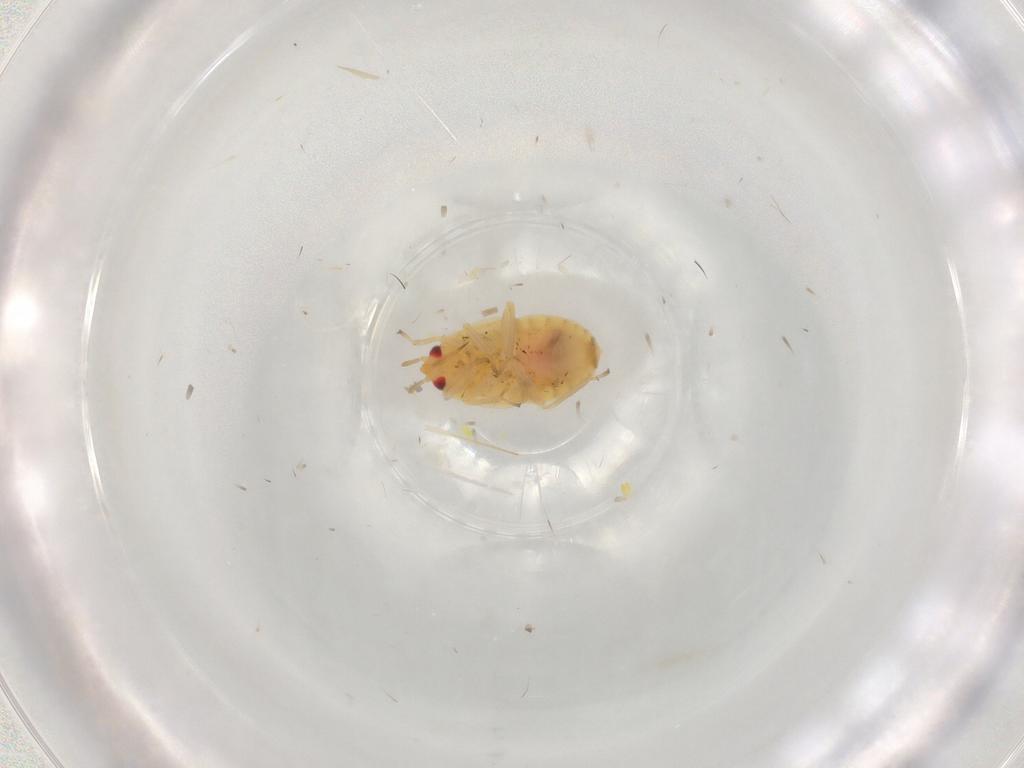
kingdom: Animalia
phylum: Arthropoda
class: Insecta
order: Hemiptera
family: Anthocoridae
